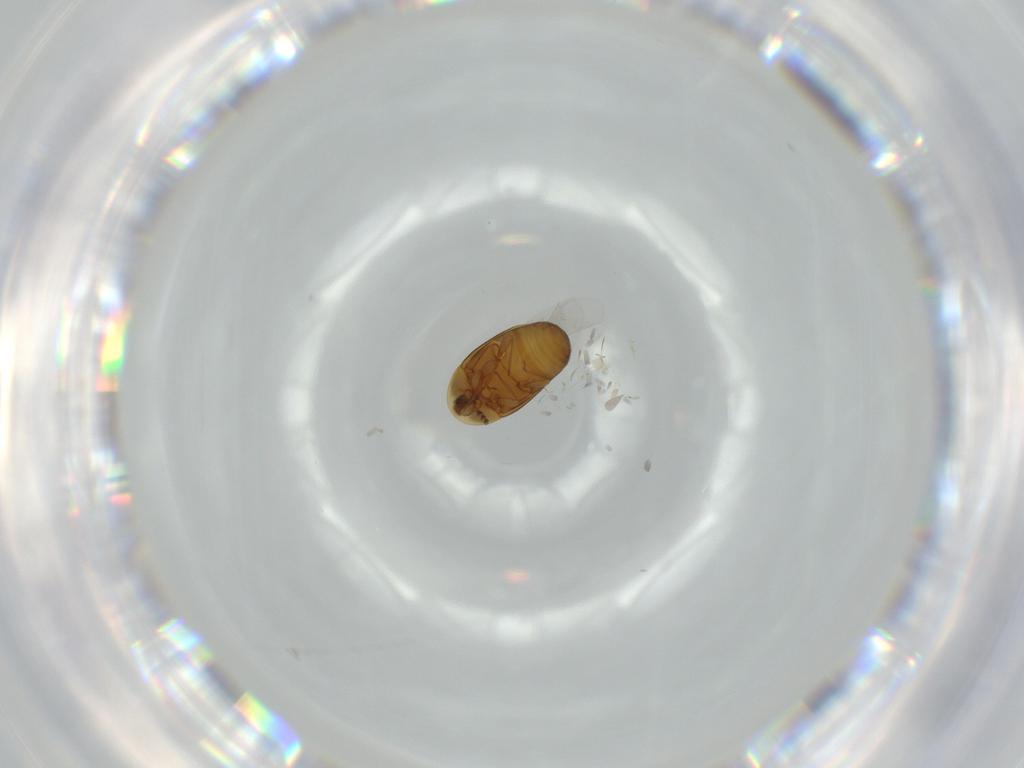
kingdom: Animalia
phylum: Arthropoda
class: Insecta
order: Coleoptera
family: Corylophidae
